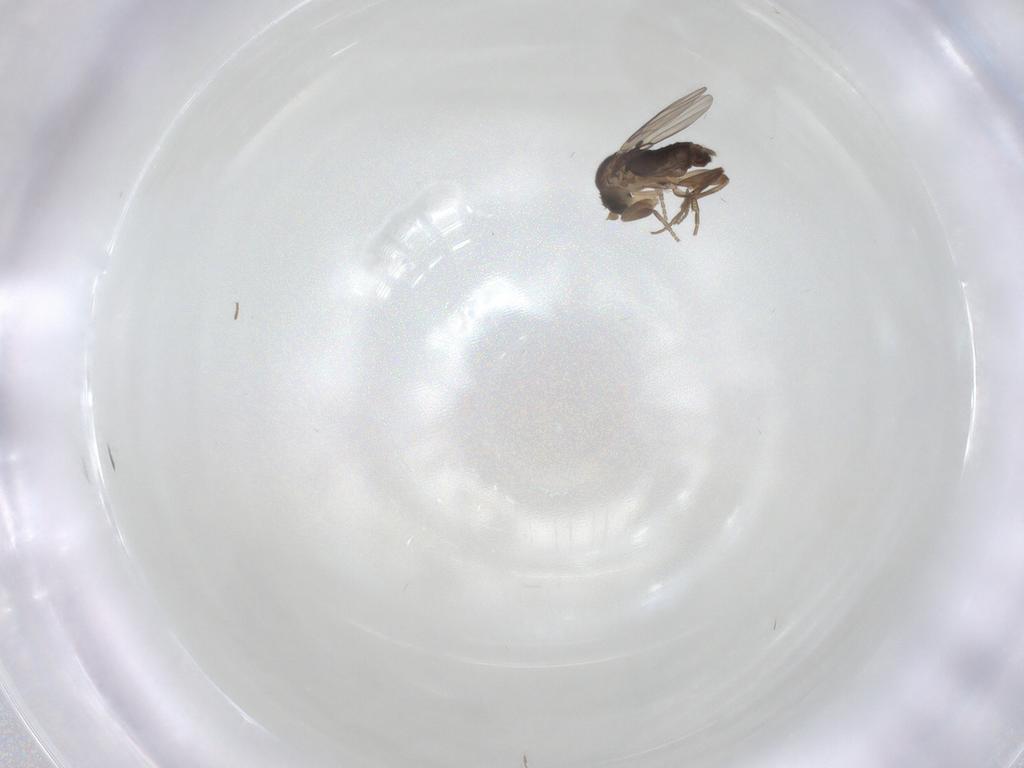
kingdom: Animalia
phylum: Arthropoda
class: Insecta
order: Diptera
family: Phoridae
